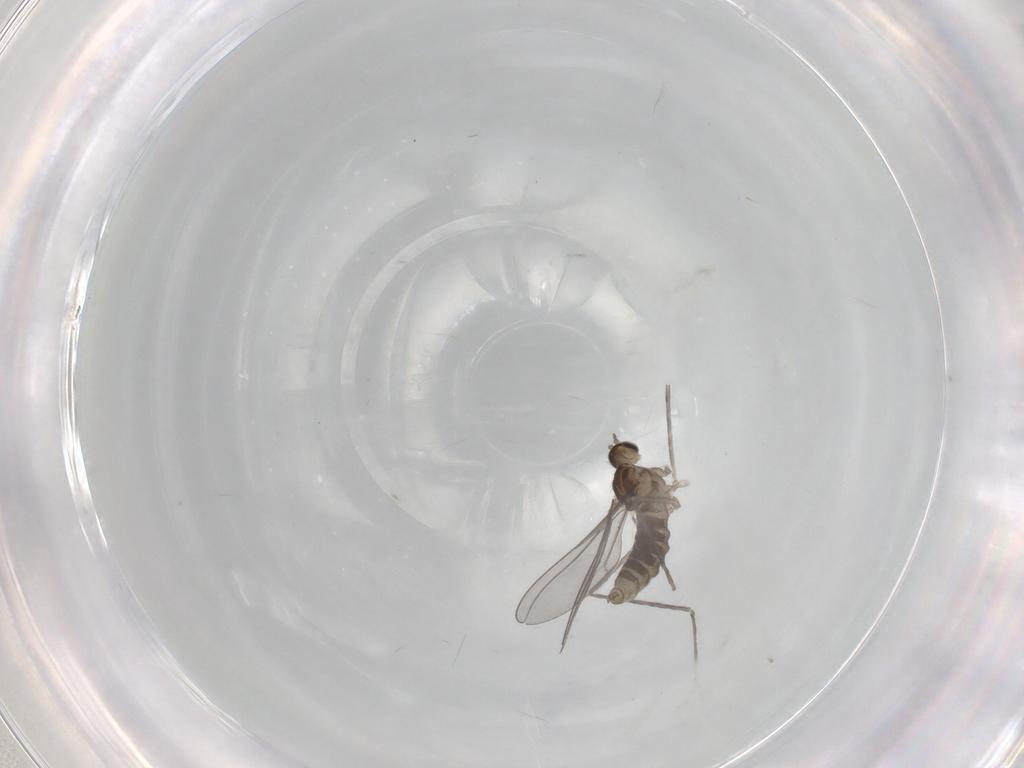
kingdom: Animalia
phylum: Arthropoda
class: Insecta
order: Diptera
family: Cecidomyiidae
